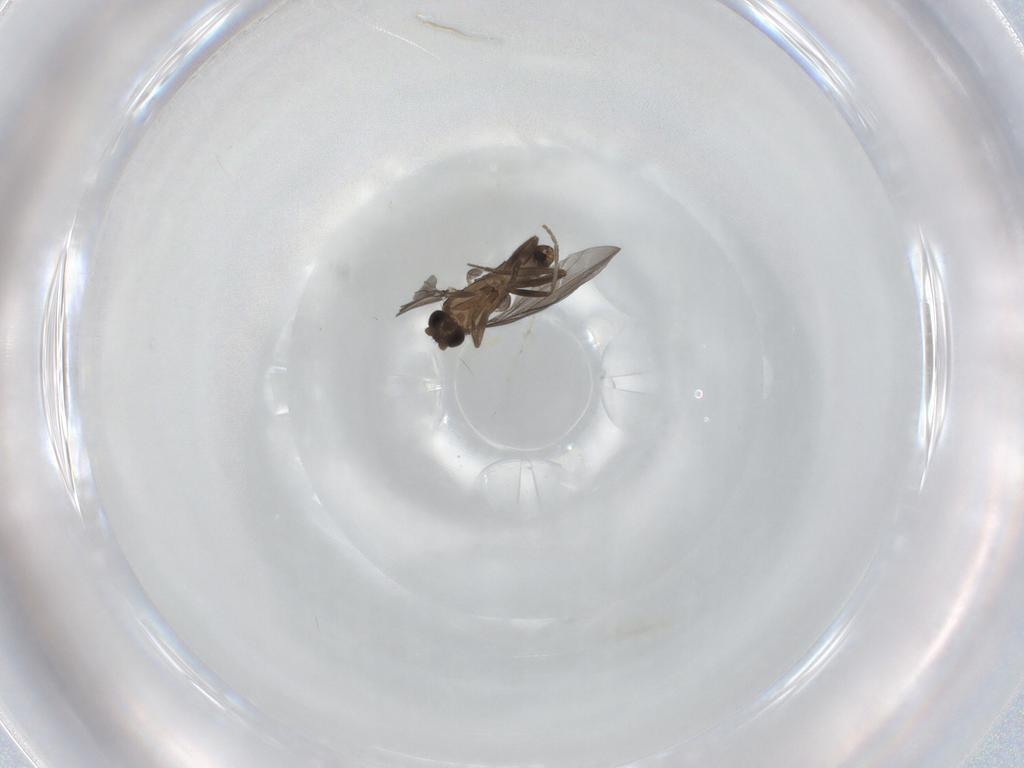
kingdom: Animalia
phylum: Arthropoda
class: Insecta
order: Diptera
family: Phoridae
